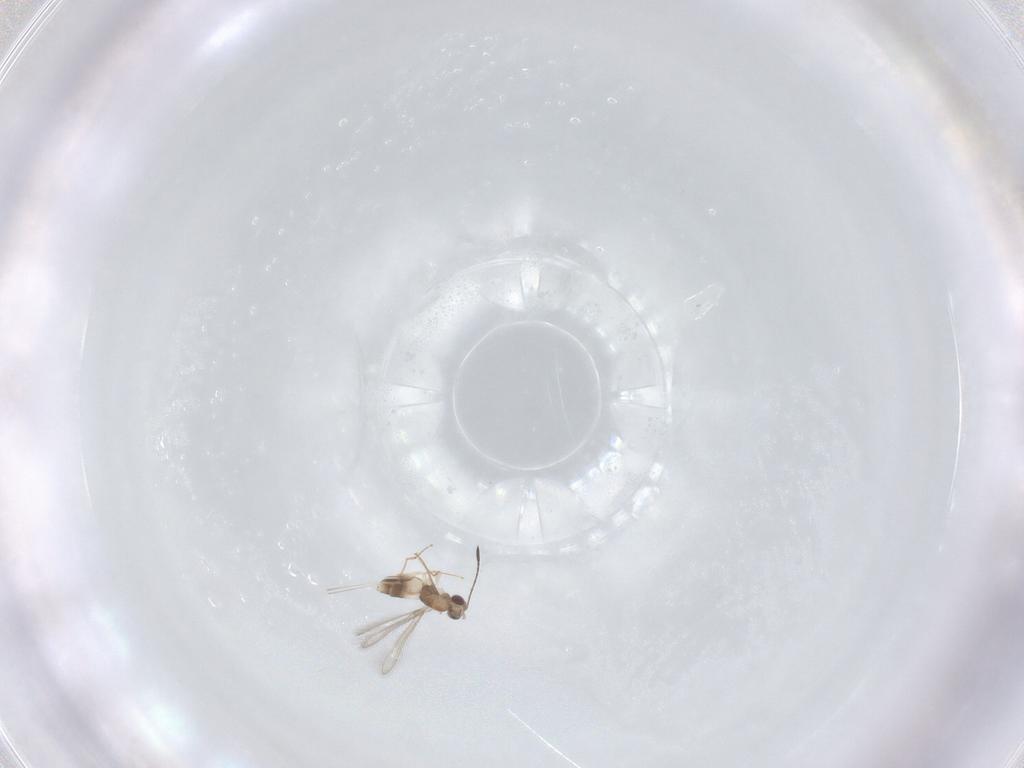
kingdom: Animalia
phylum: Arthropoda
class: Insecta
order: Hymenoptera
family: Mymaridae
